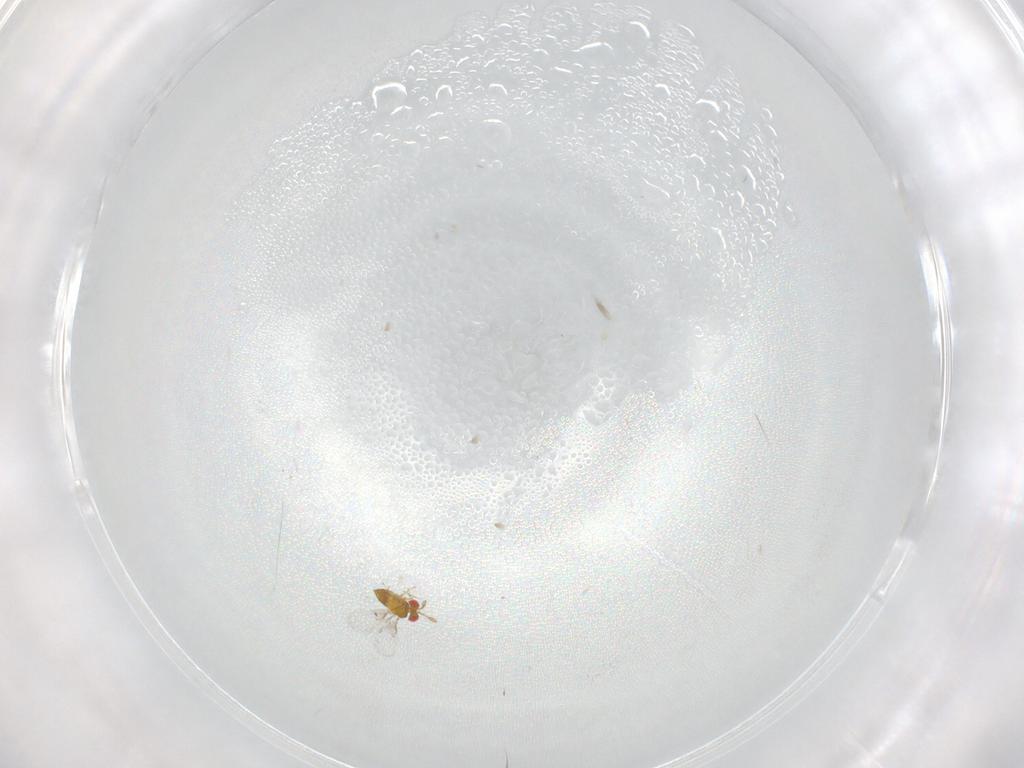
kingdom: Animalia
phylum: Arthropoda
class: Insecta
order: Hymenoptera
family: Trichogrammatidae
